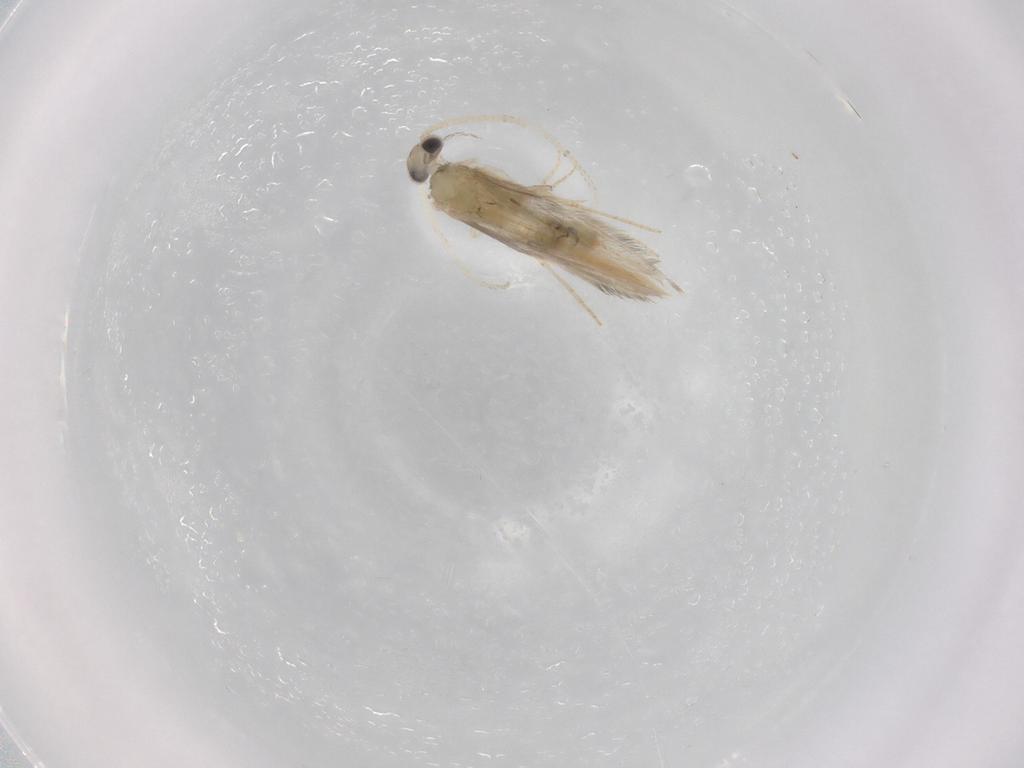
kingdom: Animalia
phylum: Arthropoda
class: Insecta
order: Trichoptera
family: Hydroptilidae
